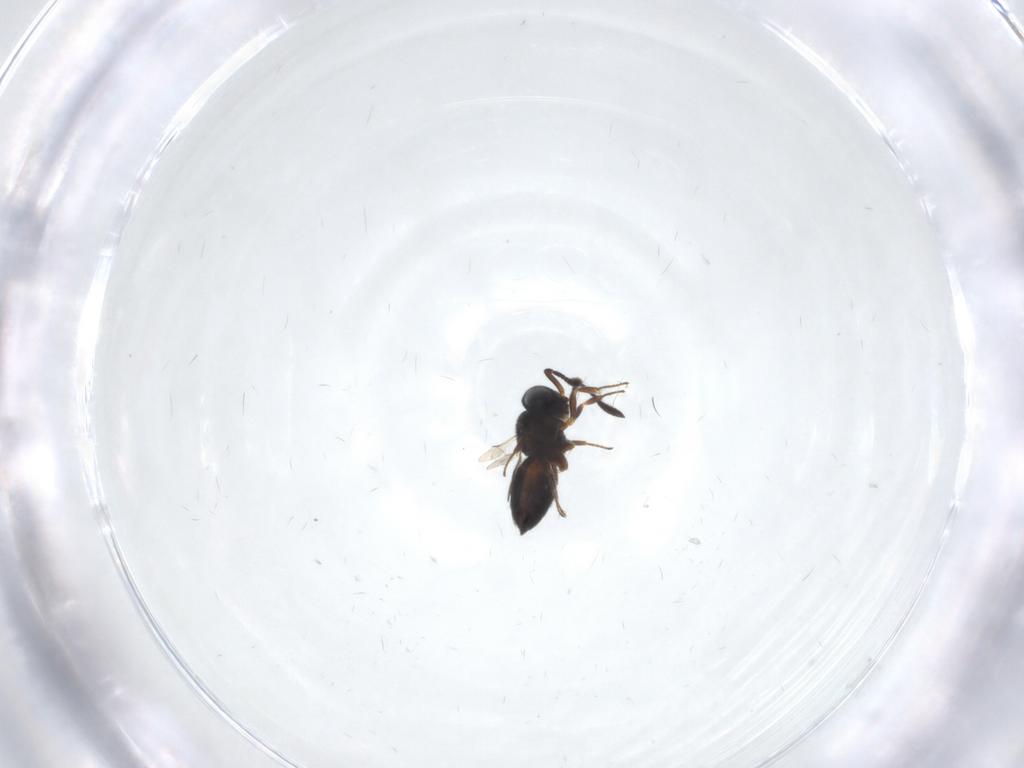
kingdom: Animalia
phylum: Arthropoda
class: Insecta
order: Hymenoptera
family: Scelionidae
